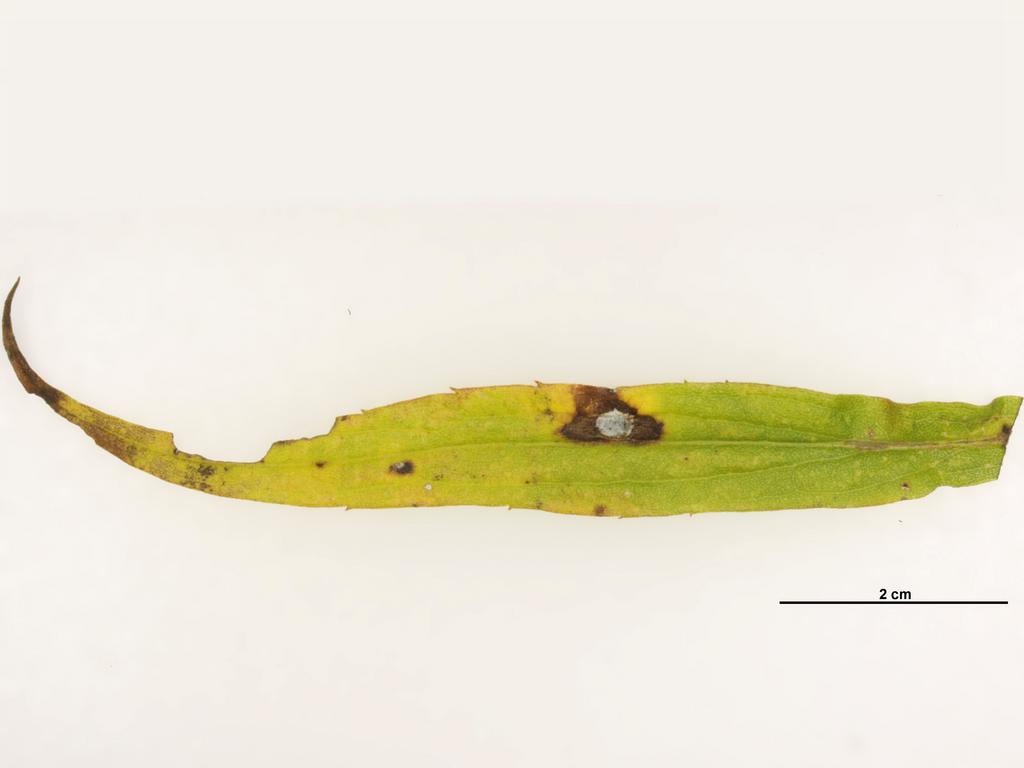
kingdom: Animalia
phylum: Arthropoda
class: Insecta
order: Hymenoptera
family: Eulophidae
